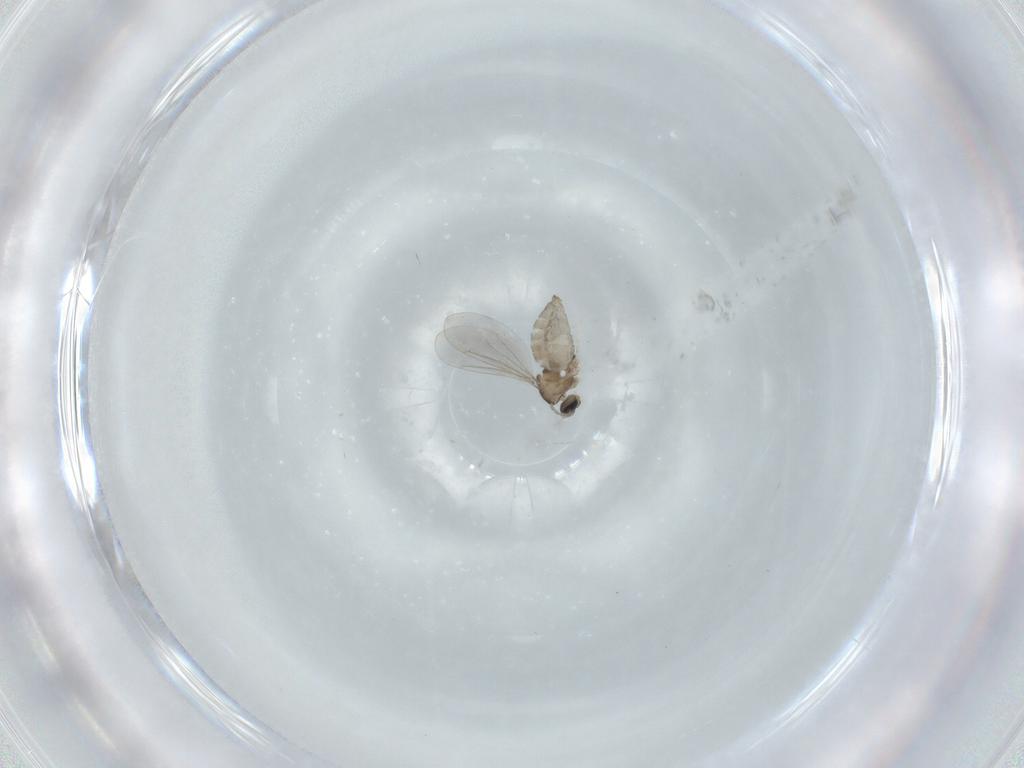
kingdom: Animalia
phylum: Arthropoda
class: Insecta
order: Diptera
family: Cecidomyiidae
